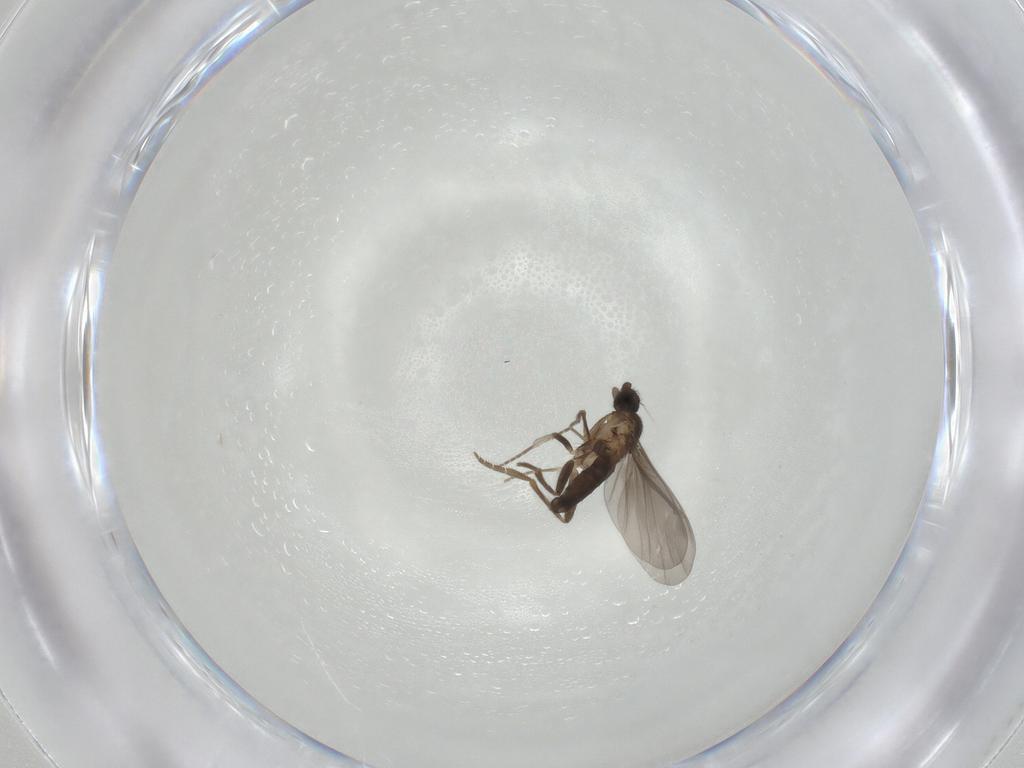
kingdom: Animalia
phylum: Arthropoda
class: Insecta
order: Diptera
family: Phoridae
